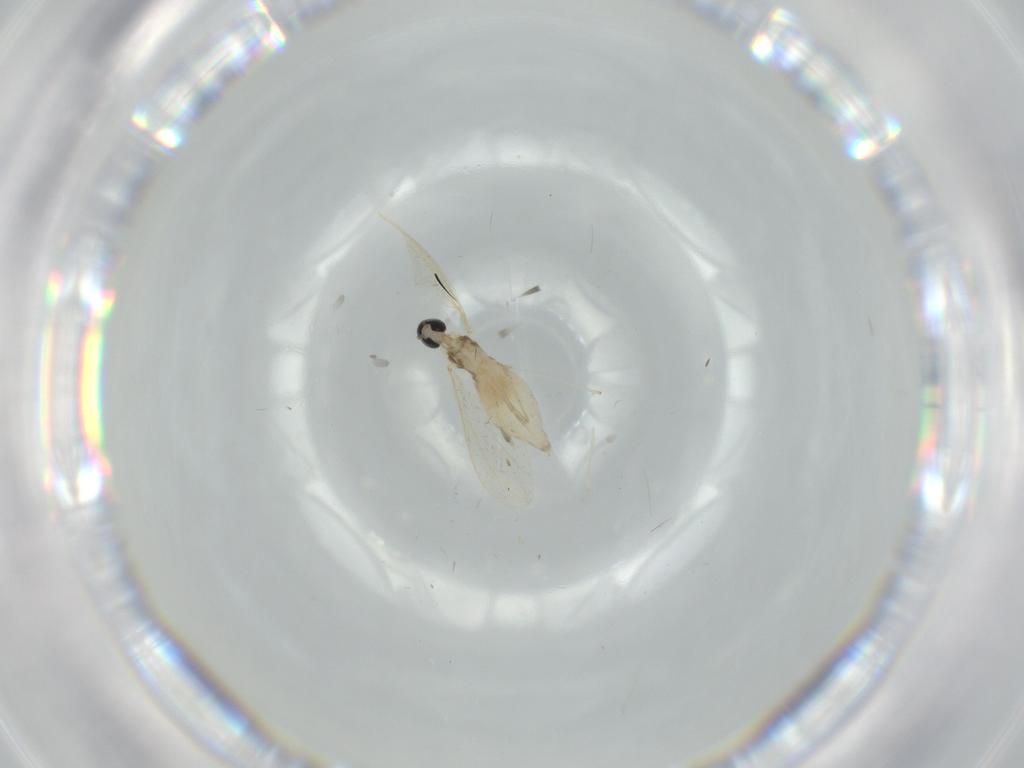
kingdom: Animalia
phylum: Arthropoda
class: Insecta
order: Diptera
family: Cecidomyiidae
